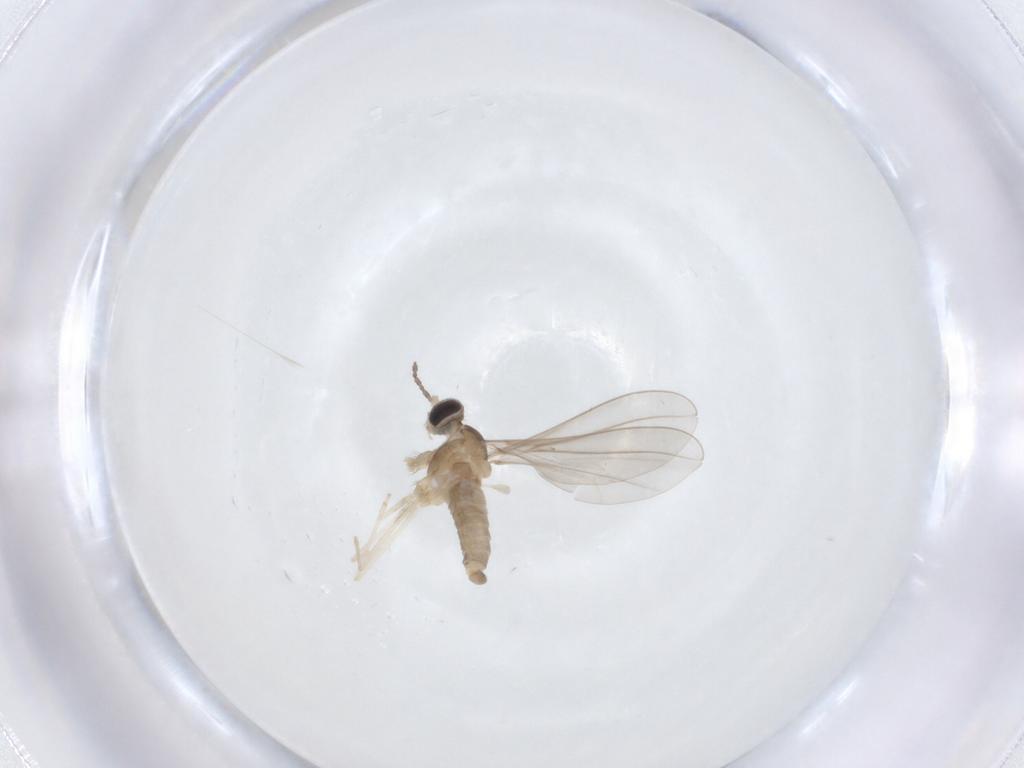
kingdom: Animalia
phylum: Arthropoda
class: Insecta
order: Diptera
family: Cecidomyiidae
